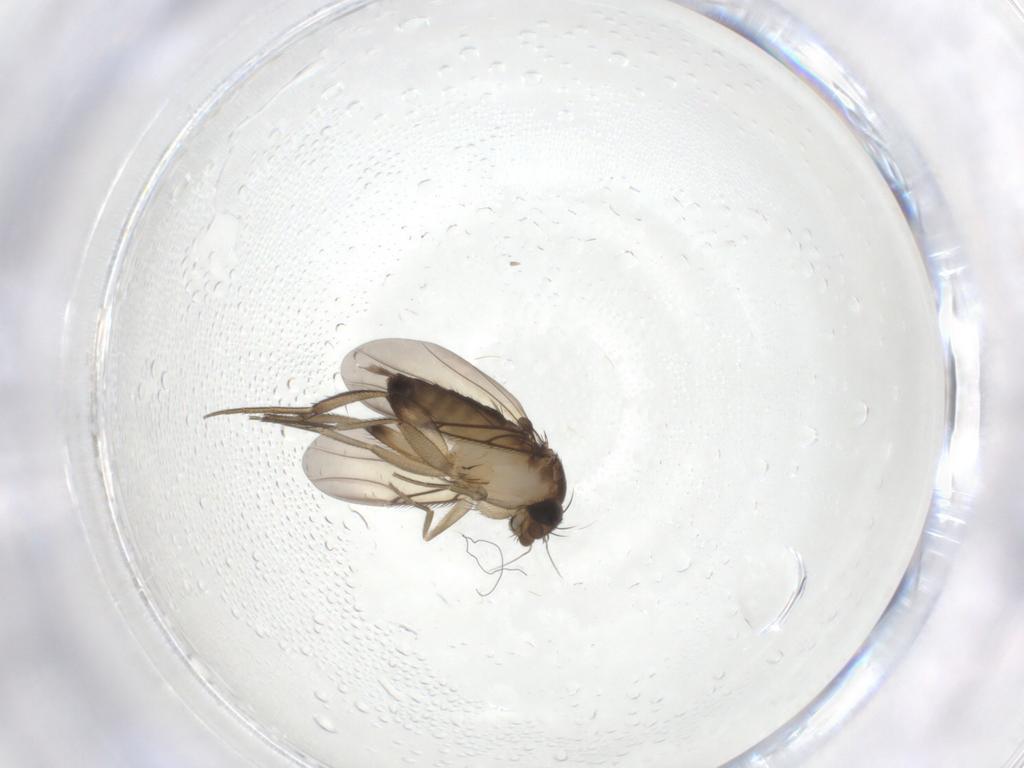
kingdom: Animalia
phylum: Arthropoda
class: Insecta
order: Diptera
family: Phoridae
